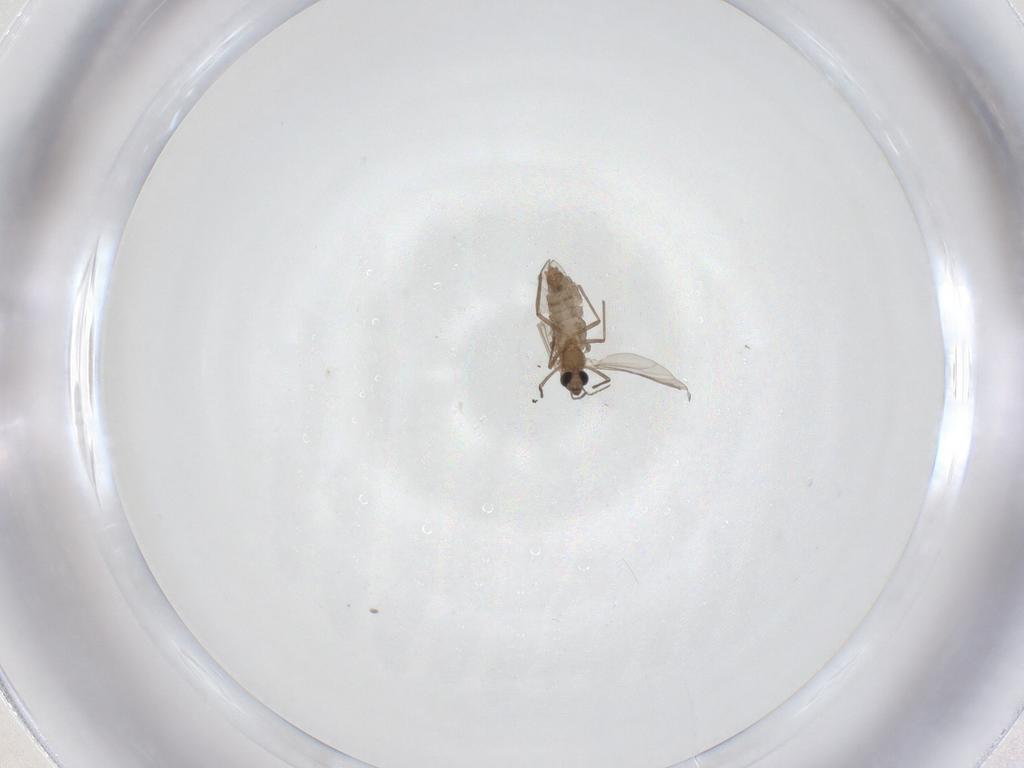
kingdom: Animalia
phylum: Arthropoda
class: Insecta
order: Diptera
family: Chironomidae
